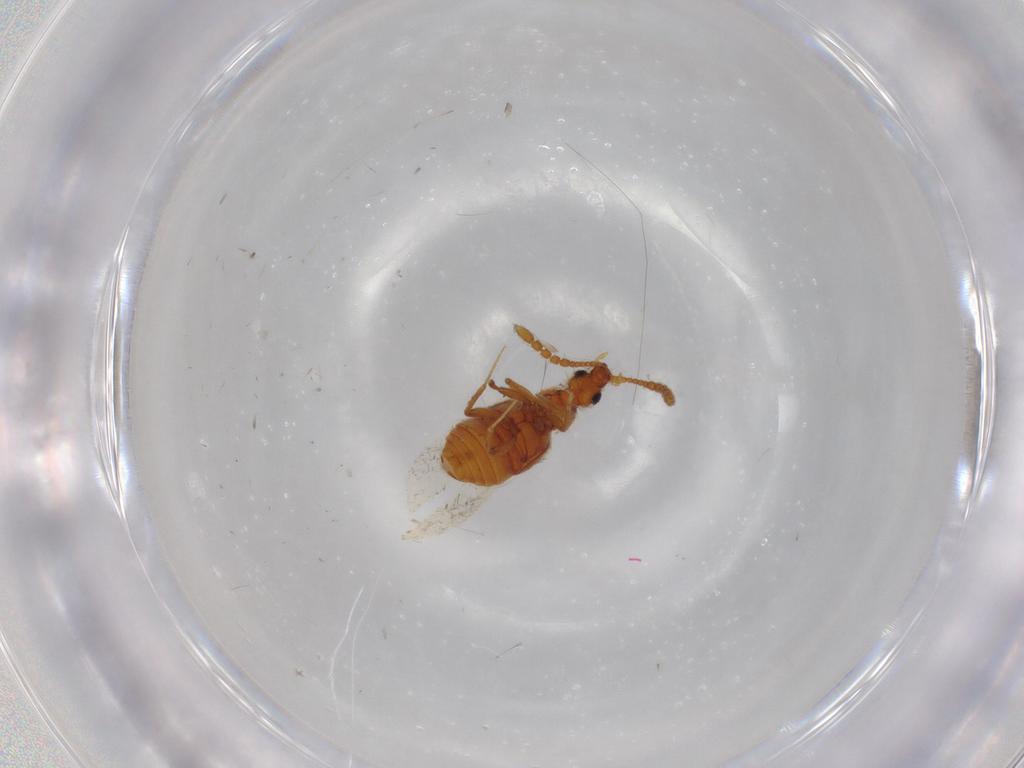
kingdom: Animalia
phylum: Arthropoda
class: Insecta
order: Coleoptera
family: Staphylinidae
